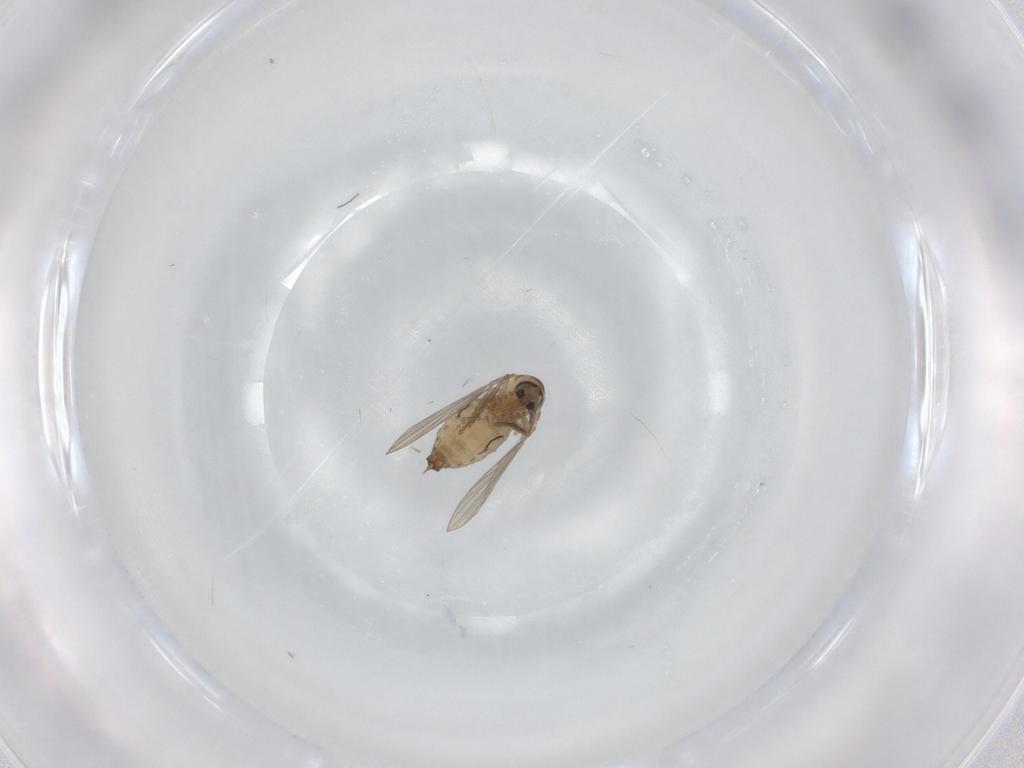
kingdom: Animalia
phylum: Arthropoda
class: Insecta
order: Diptera
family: Psychodidae
